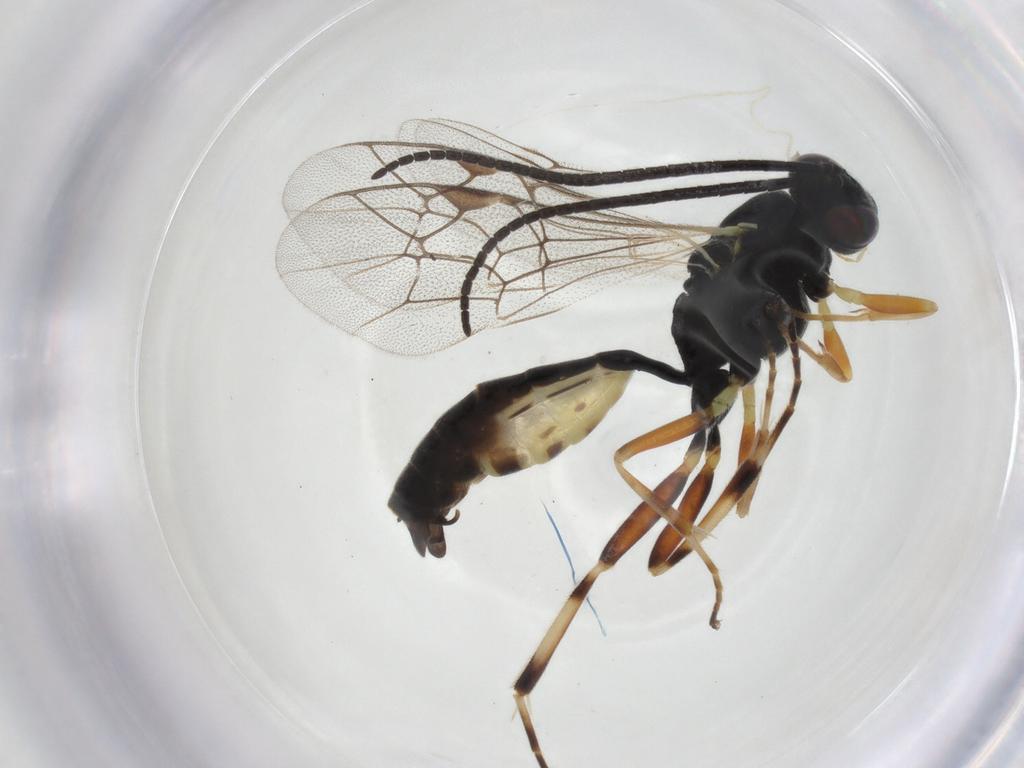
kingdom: Animalia
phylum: Arthropoda
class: Insecta
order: Hymenoptera
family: Ichneumonidae
